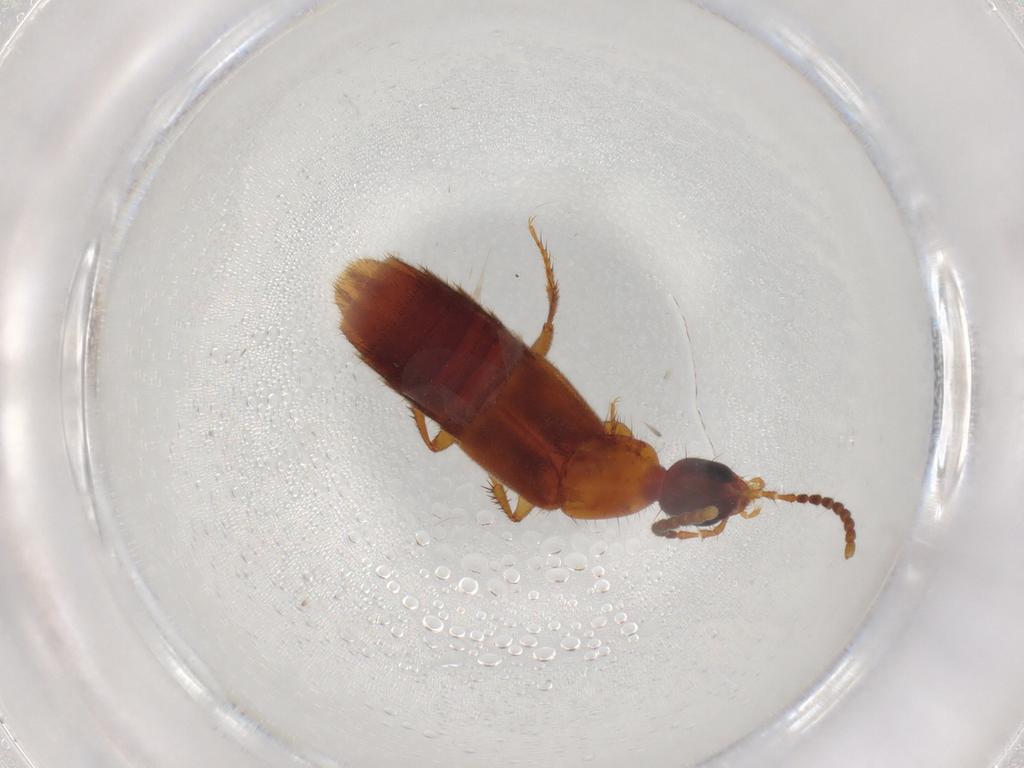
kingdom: Animalia
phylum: Arthropoda
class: Insecta
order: Coleoptera
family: Staphylinidae
